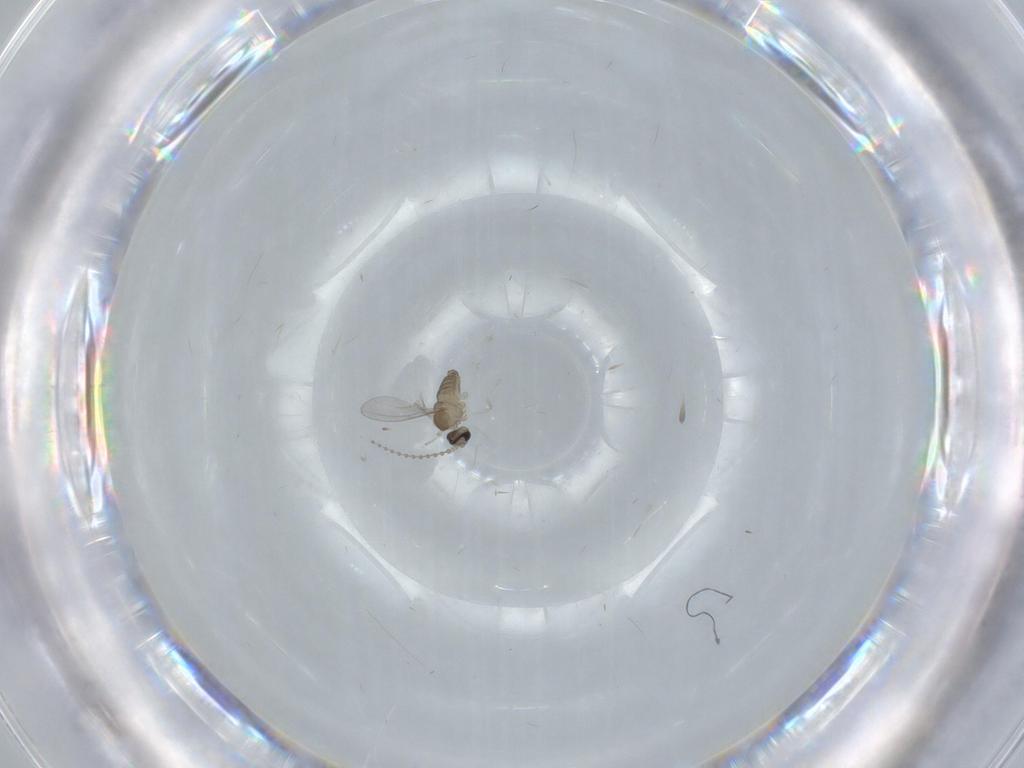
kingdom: Animalia
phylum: Arthropoda
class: Insecta
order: Diptera
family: Cecidomyiidae
